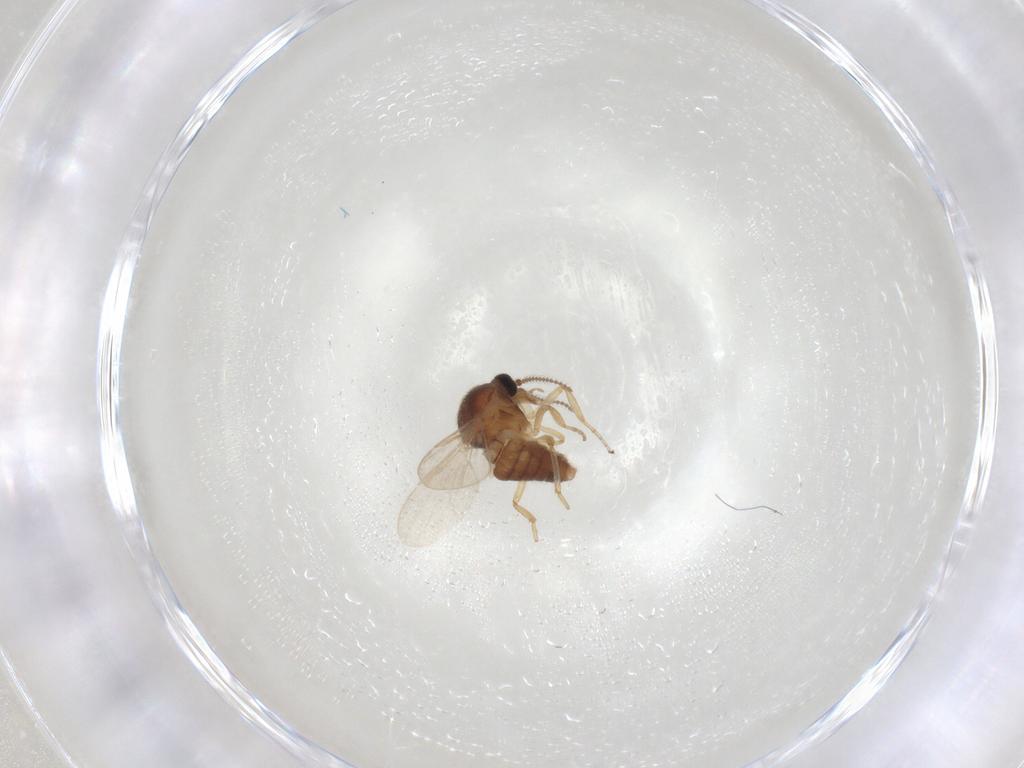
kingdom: Animalia
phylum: Arthropoda
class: Insecta
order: Diptera
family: Ceratopogonidae
